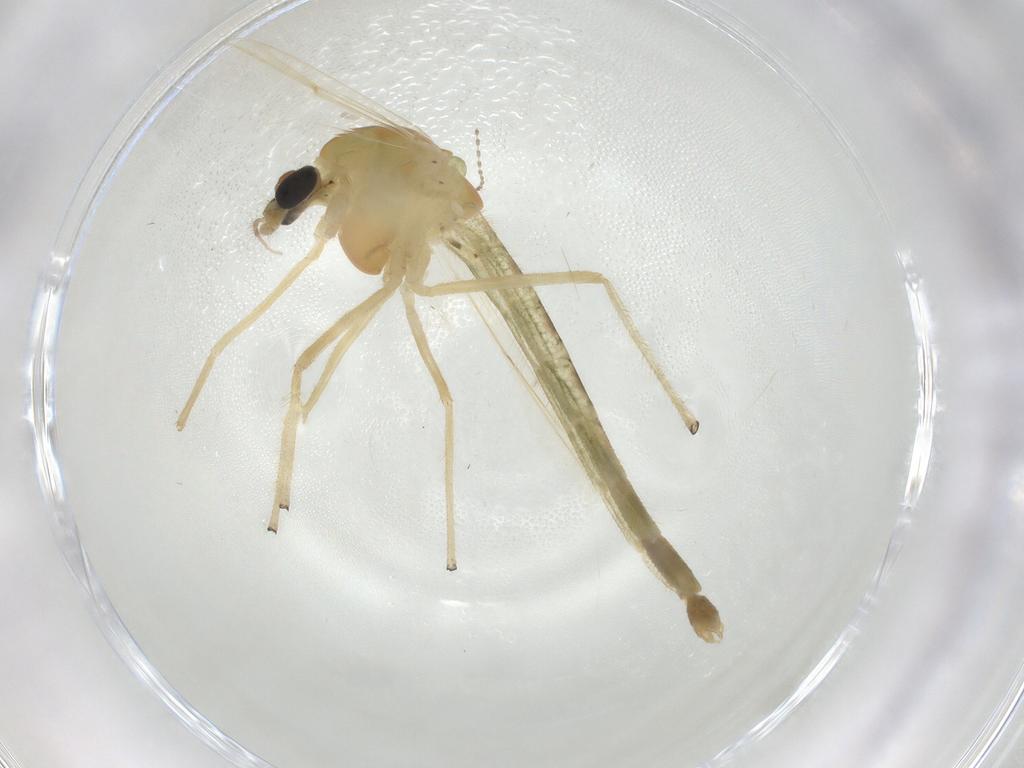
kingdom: Animalia
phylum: Arthropoda
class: Insecta
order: Diptera
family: Chironomidae
